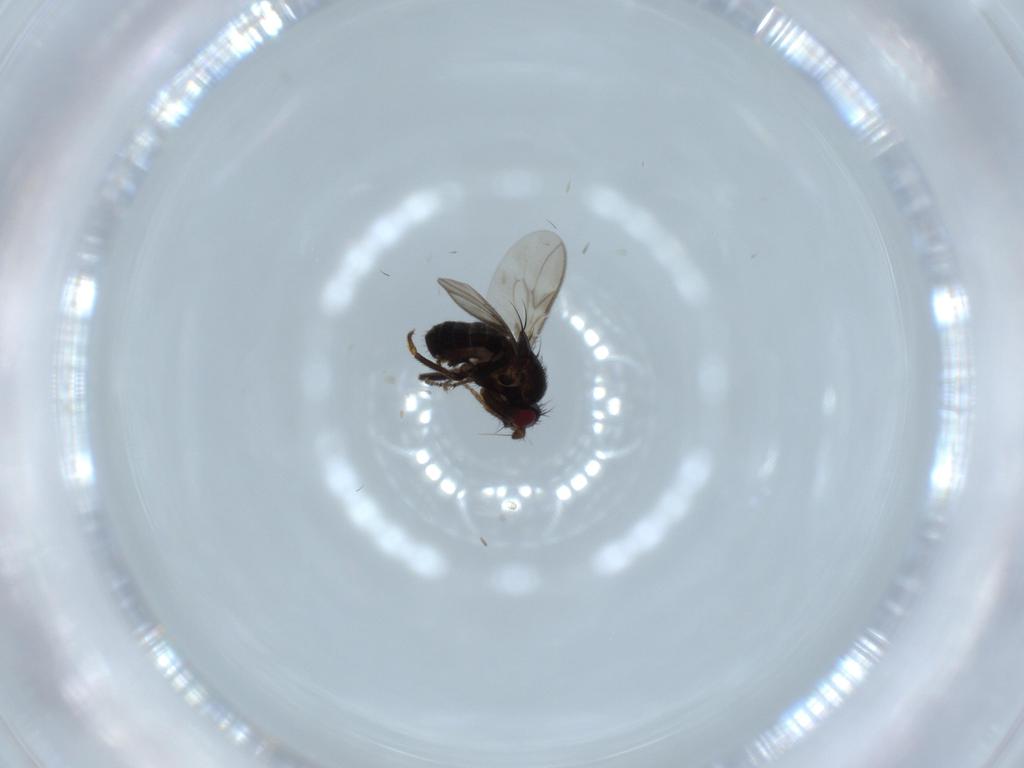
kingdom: Animalia
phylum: Arthropoda
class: Insecta
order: Diptera
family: Sphaeroceridae
